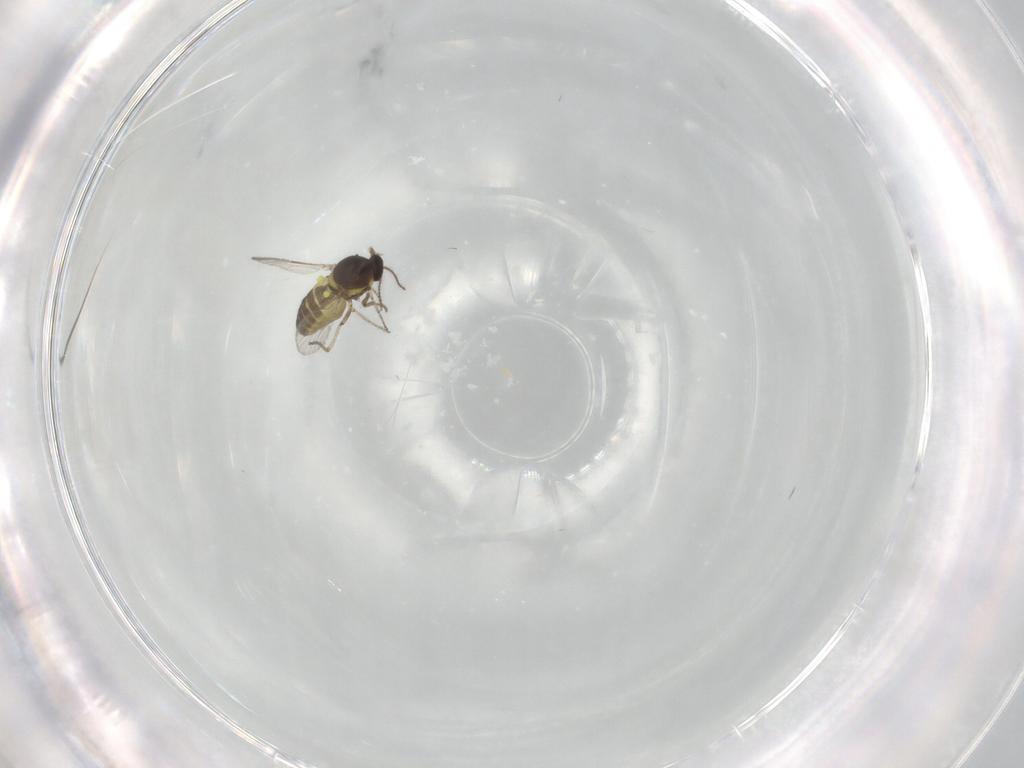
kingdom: Animalia
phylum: Arthropoda
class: Insecta
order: Diptera
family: Ceratopogonidae
